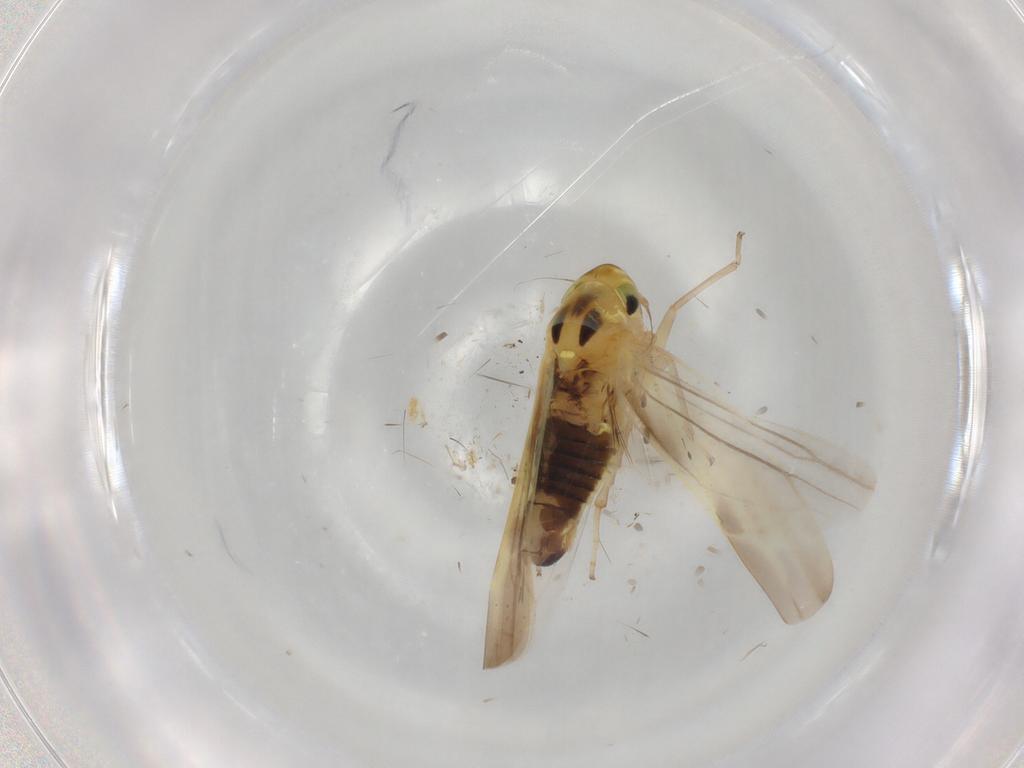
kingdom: Animalia
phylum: Arthropoda
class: Insecta
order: Hemiptera
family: Cicadellidae
